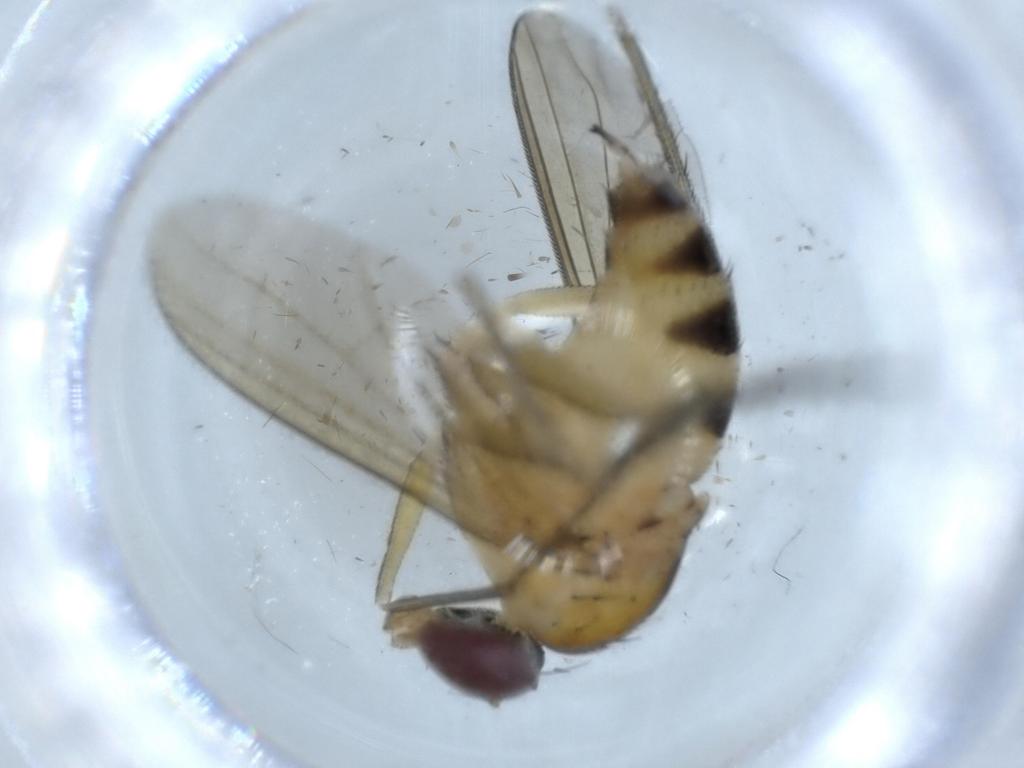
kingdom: Animalia
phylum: Arthropoda
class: Insecta
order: Diptera
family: Dolichopodidae
